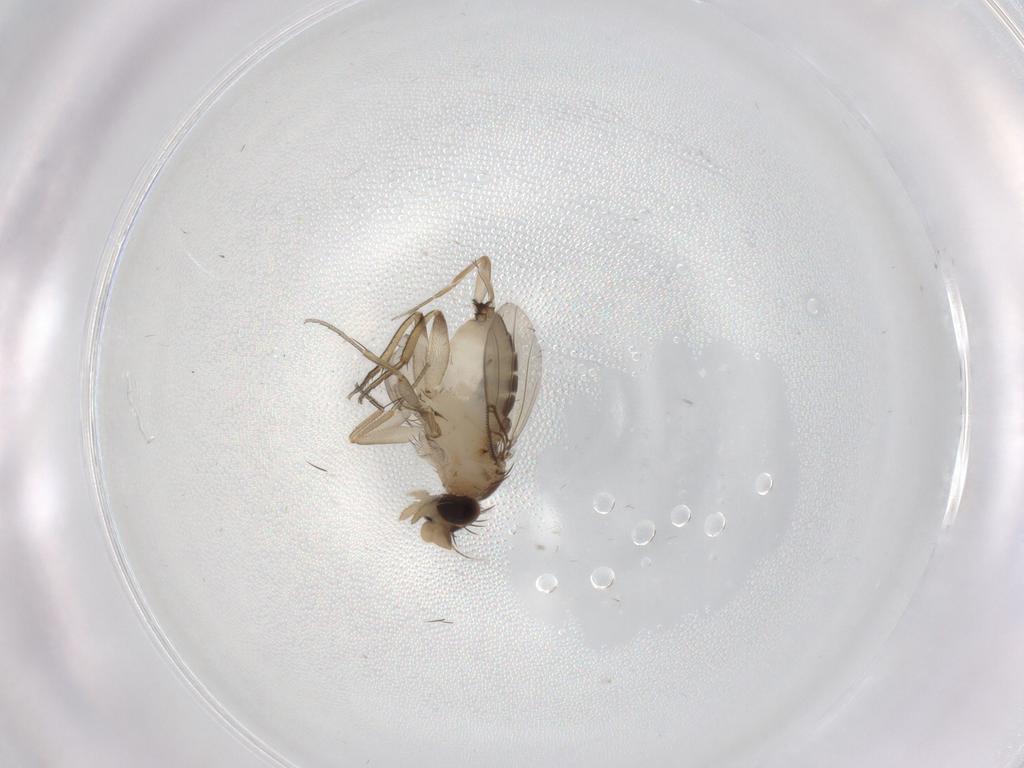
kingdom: Animalia
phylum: Arthropoda
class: Insecta
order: Diptera
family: Phoridae
